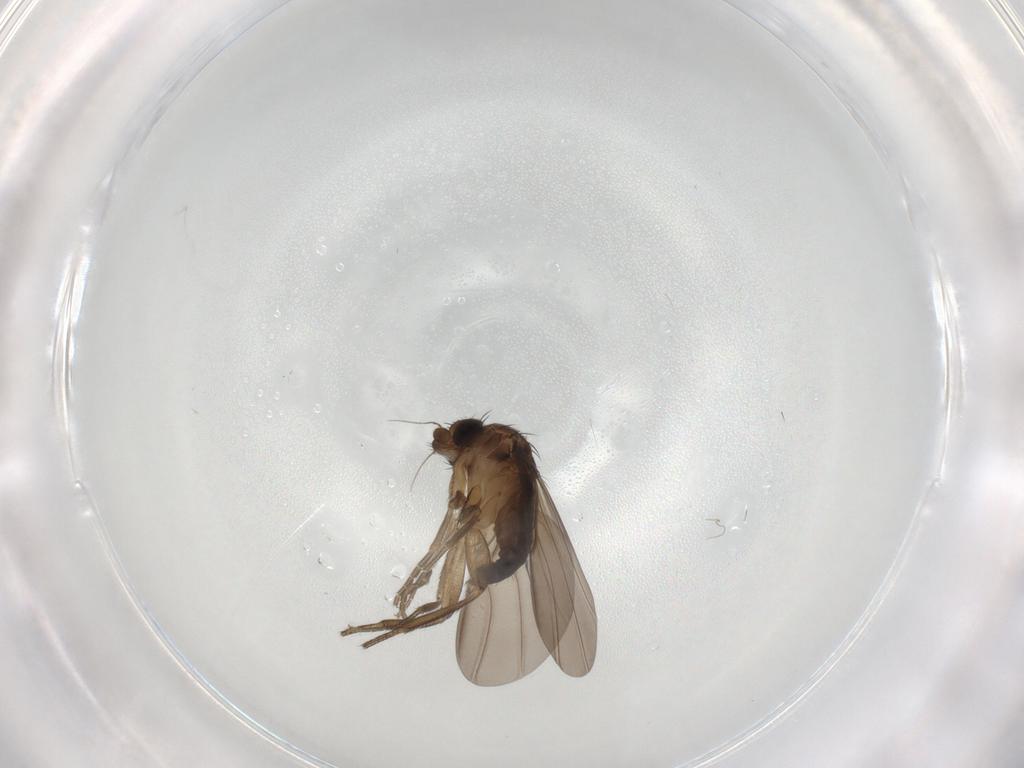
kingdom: Animalia
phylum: Arthropoda
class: Insecta
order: Diptera
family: Phoridae
